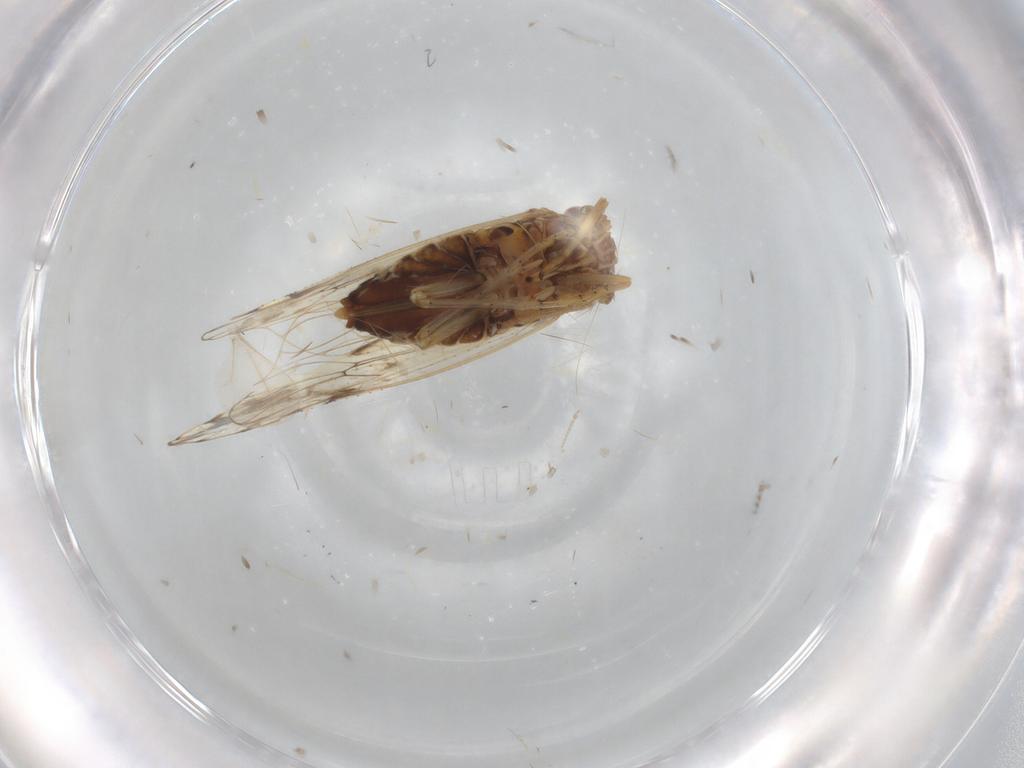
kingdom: Animalia
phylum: Arthropoda
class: Insecta
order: Hemiptera
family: Delphacidae
